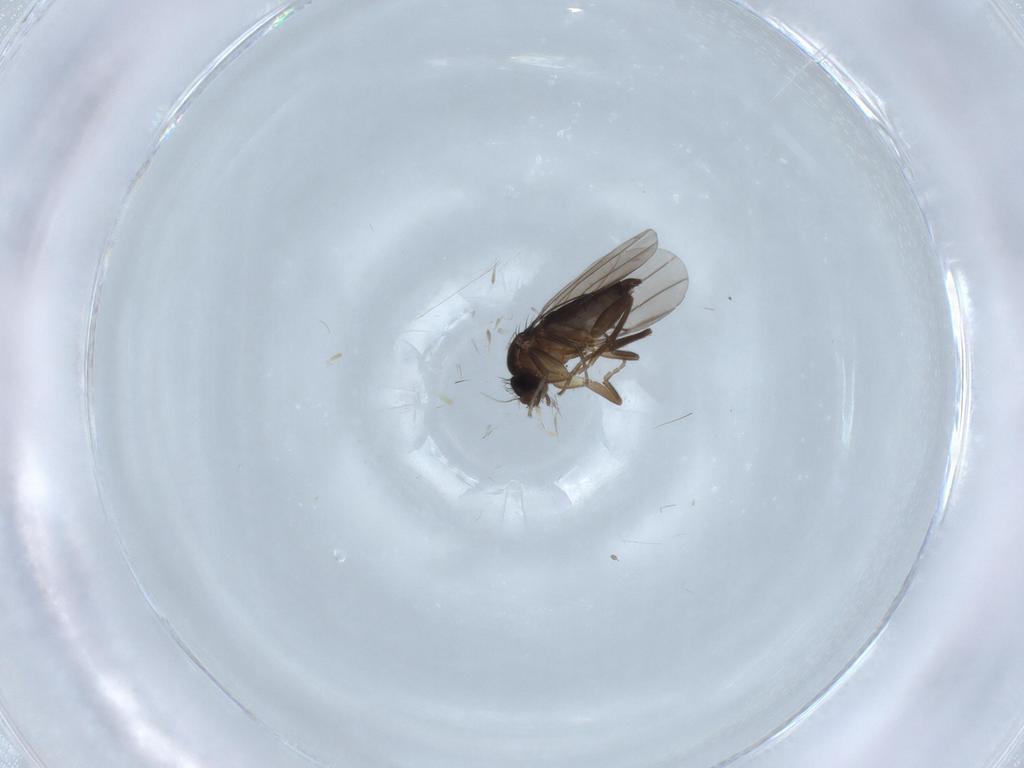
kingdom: Animalia
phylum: Arthropoda
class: Insecta
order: Diptera
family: Phoridae
